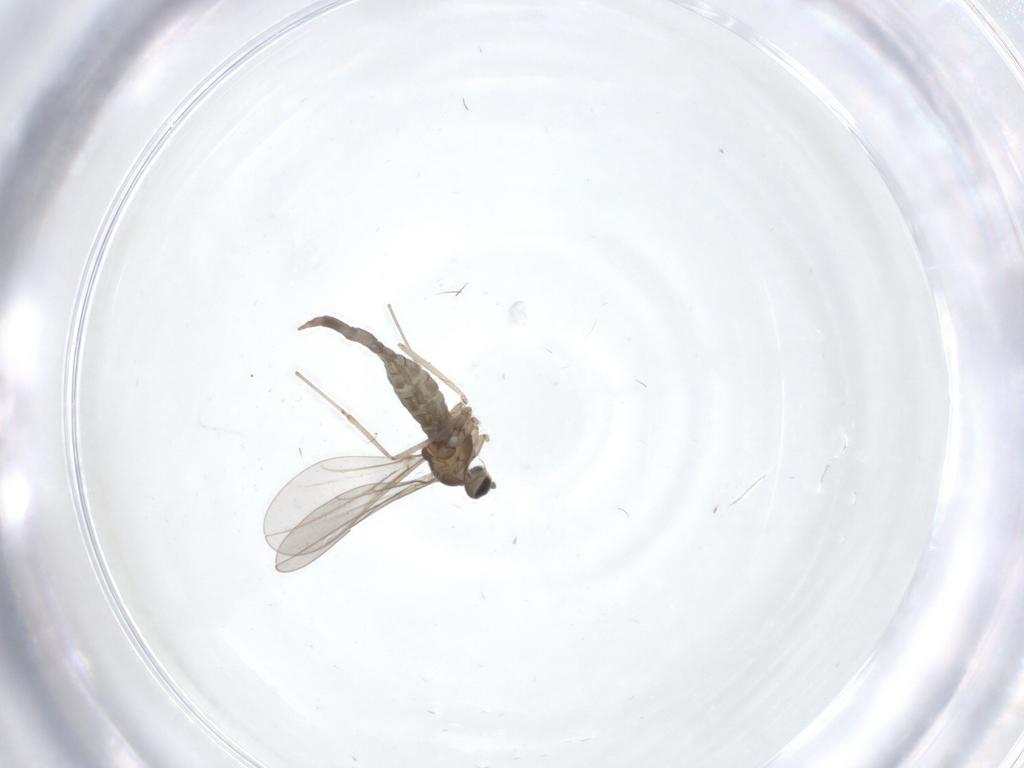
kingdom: Animalia
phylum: Arthropoda
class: Insecta
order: Diptera
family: Cecidomyiidae
